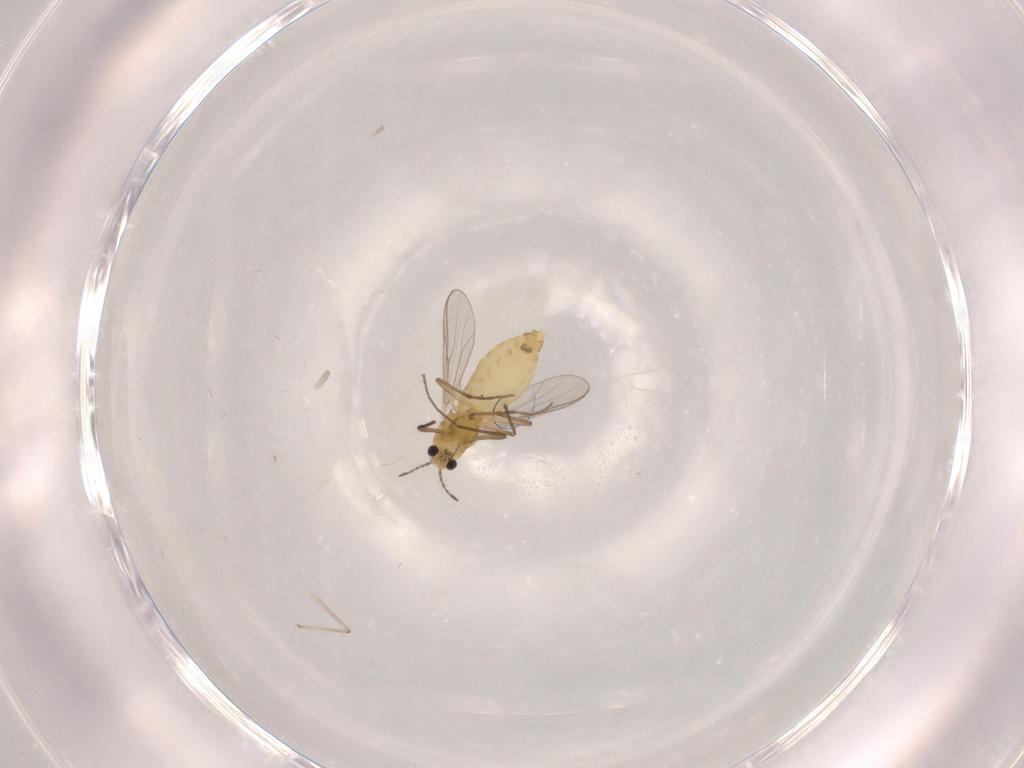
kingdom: Animalia
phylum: Arthropoda
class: Insecta
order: Diptera
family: Chironomidae
